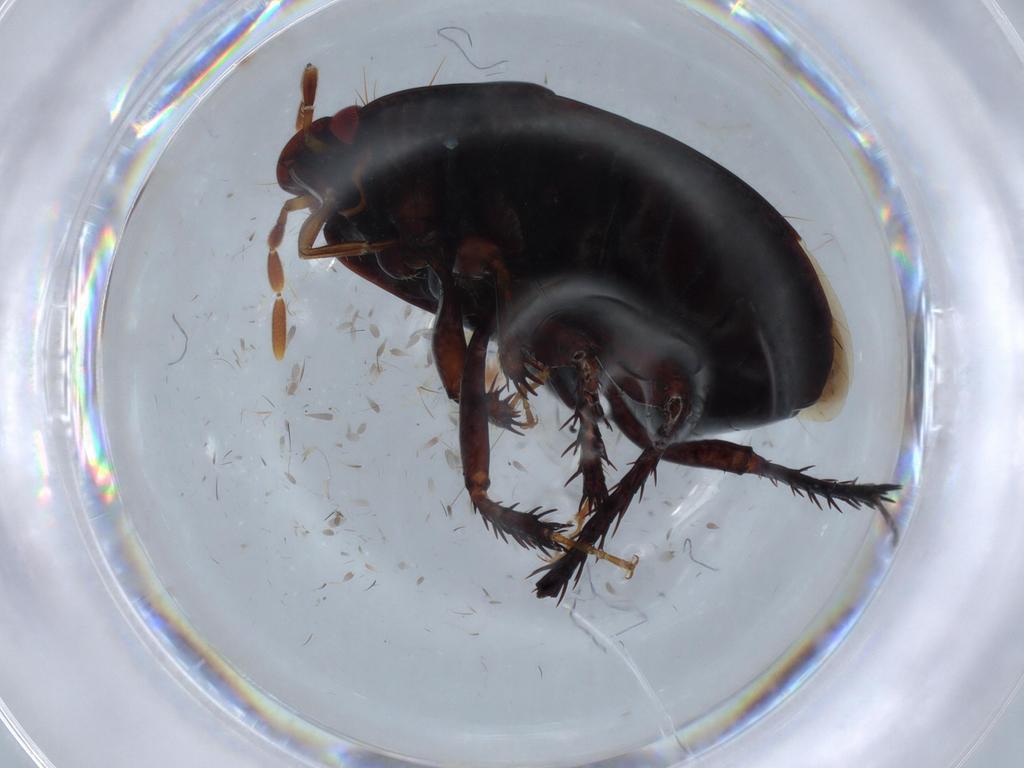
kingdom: Animalia
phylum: Arthropoda
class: Insecta
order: Hemiptera
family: Cydnidae
